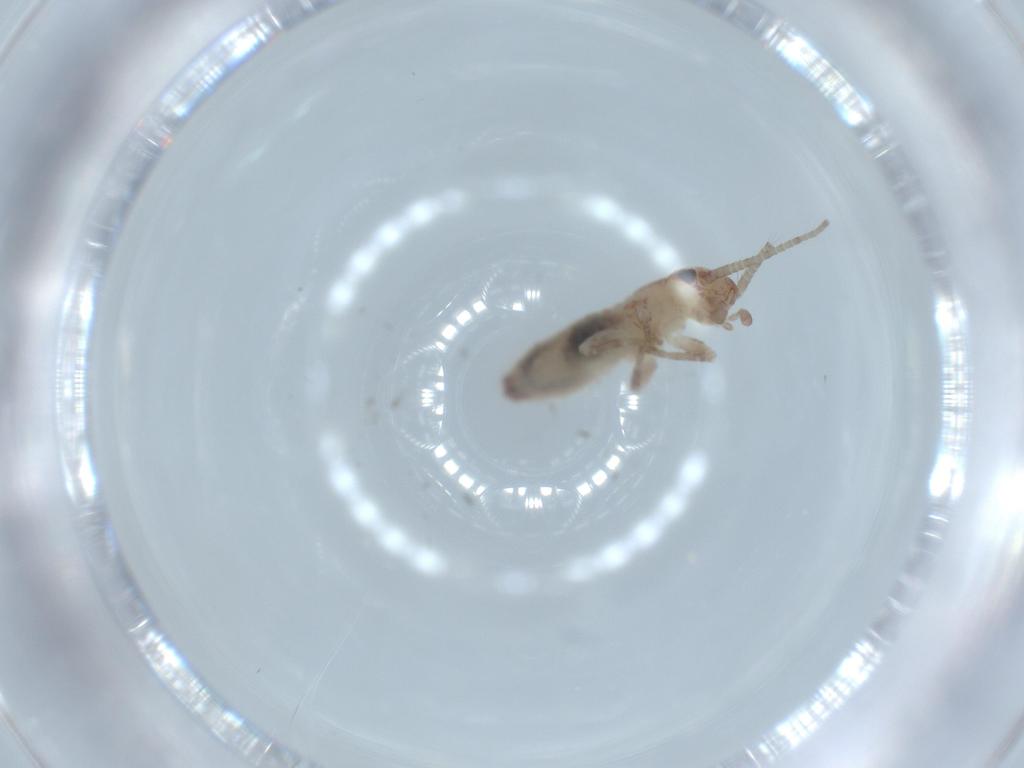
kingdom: Animalia
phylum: Arthropoda
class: Insecta
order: Orthoptera
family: Mogoplistidae
